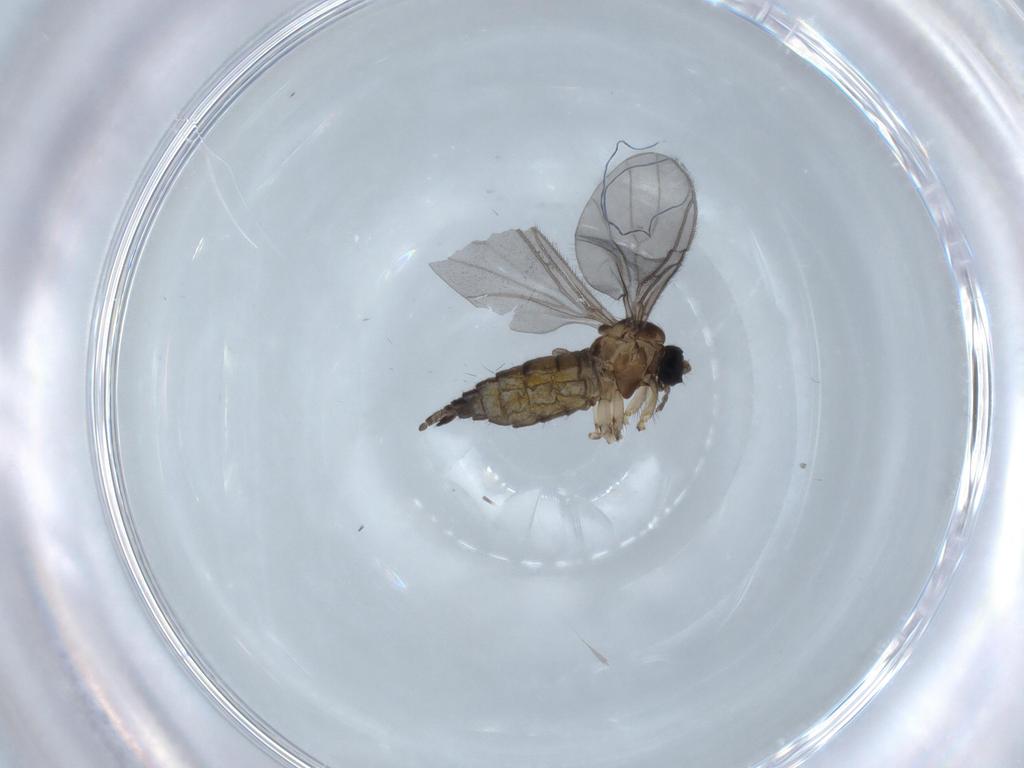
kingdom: Animalia
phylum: Arthropoda
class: Insecta
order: Diptera
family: Sciaridae
